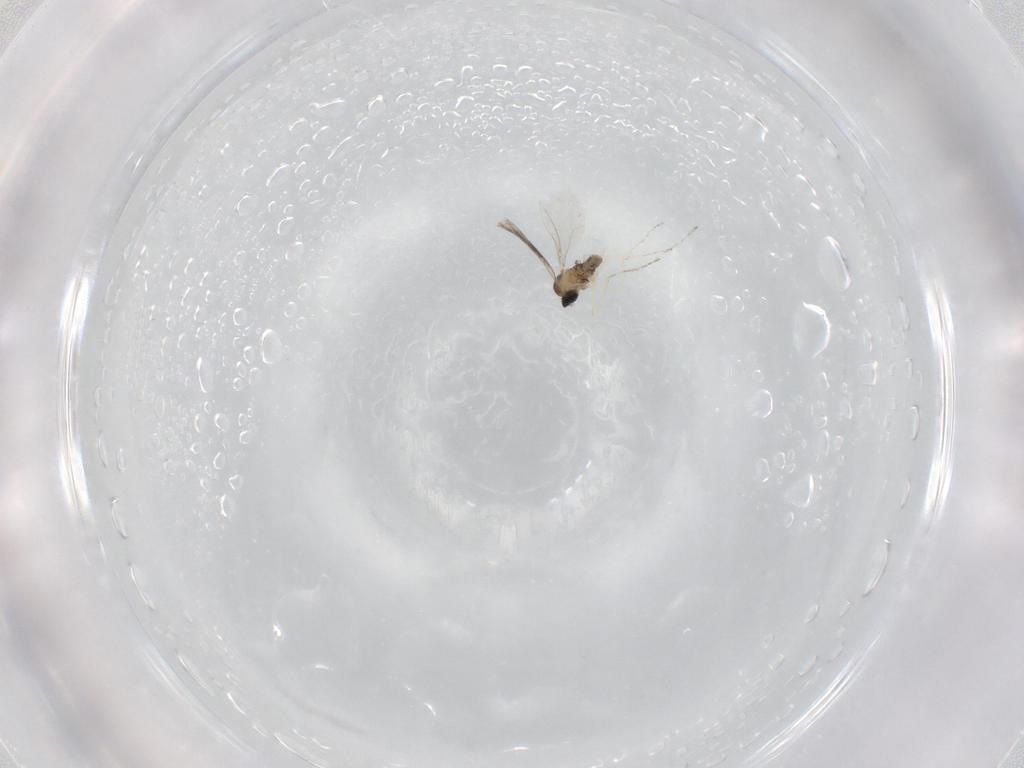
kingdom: Animalia
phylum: Arthropoda
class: Insecta
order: Diptera
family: Cecidomyiidae
